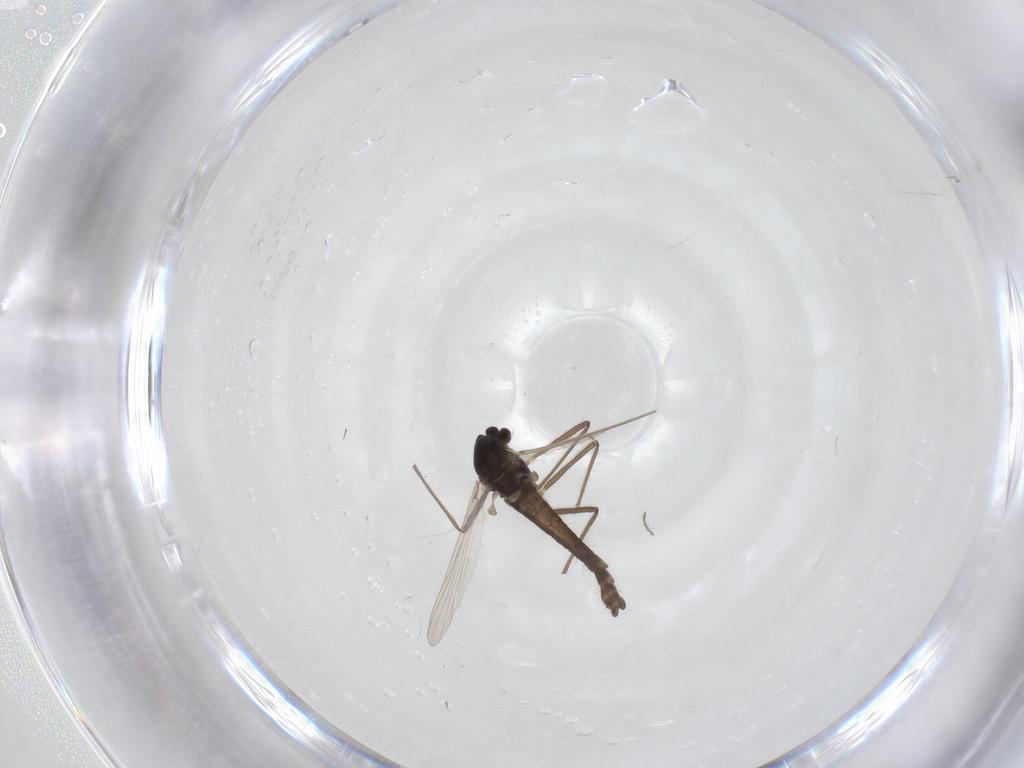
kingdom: Animalia
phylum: Arthropoda
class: Insecta
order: Diptera
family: Chironomidae
